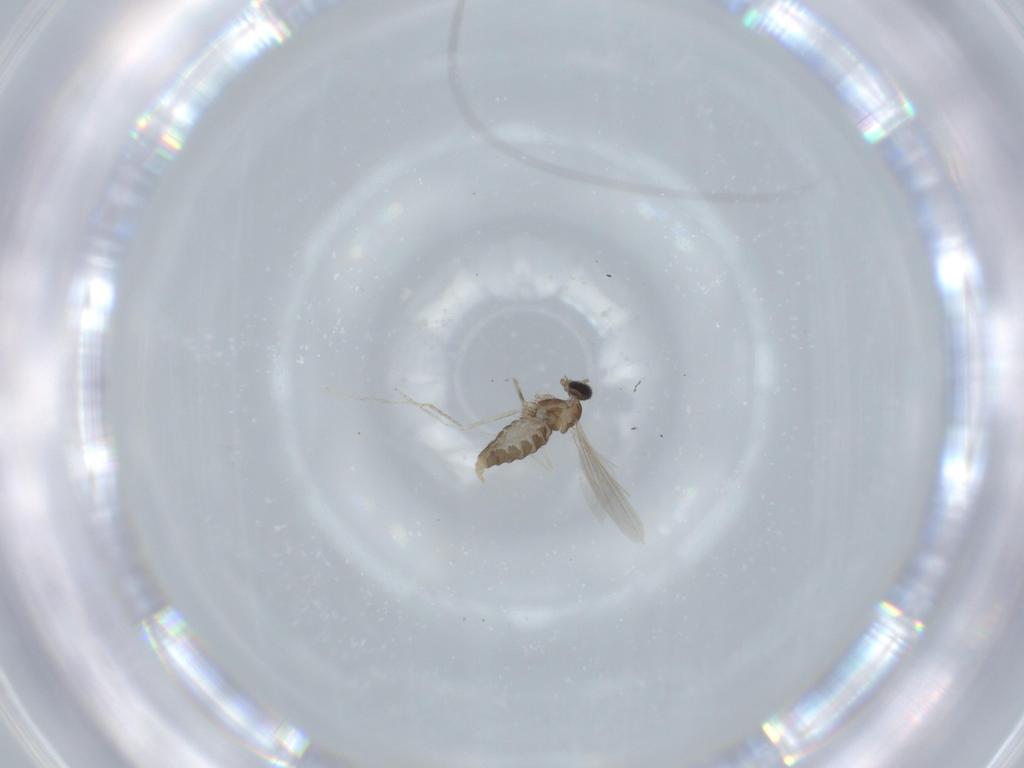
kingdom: Animalia
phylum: Arthropoda
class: Insecta
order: Diptera
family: Cecidomyiidae
